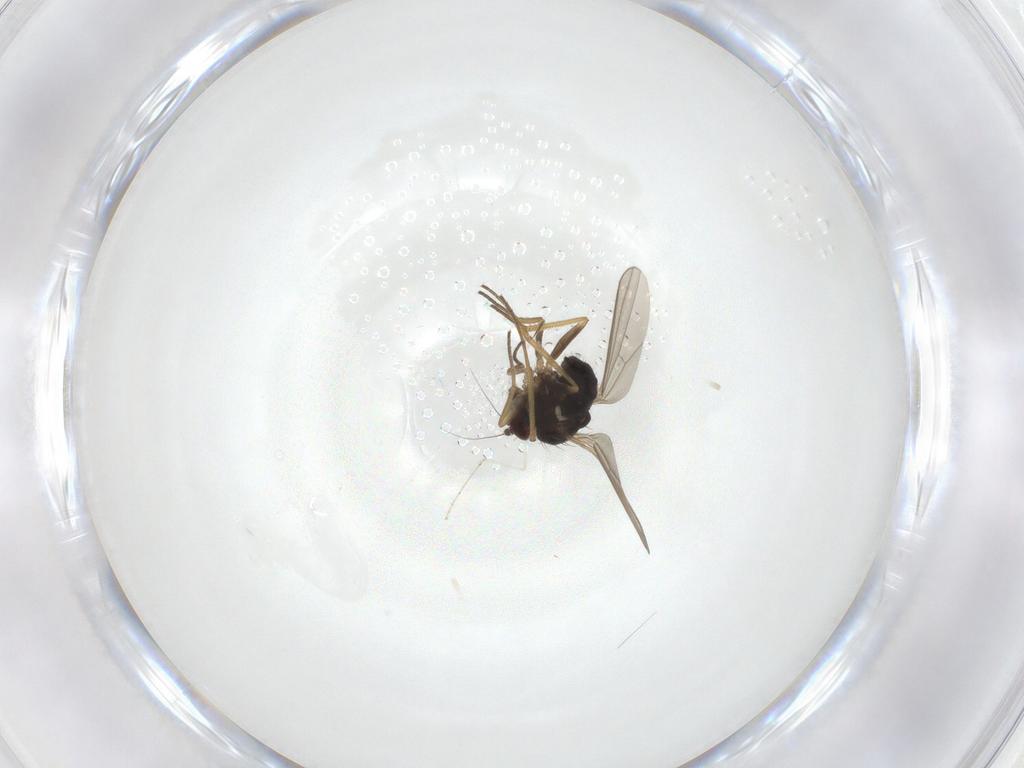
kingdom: Animalia
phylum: Arthropoda
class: Insecta
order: Diptera
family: Dolichopodidae
